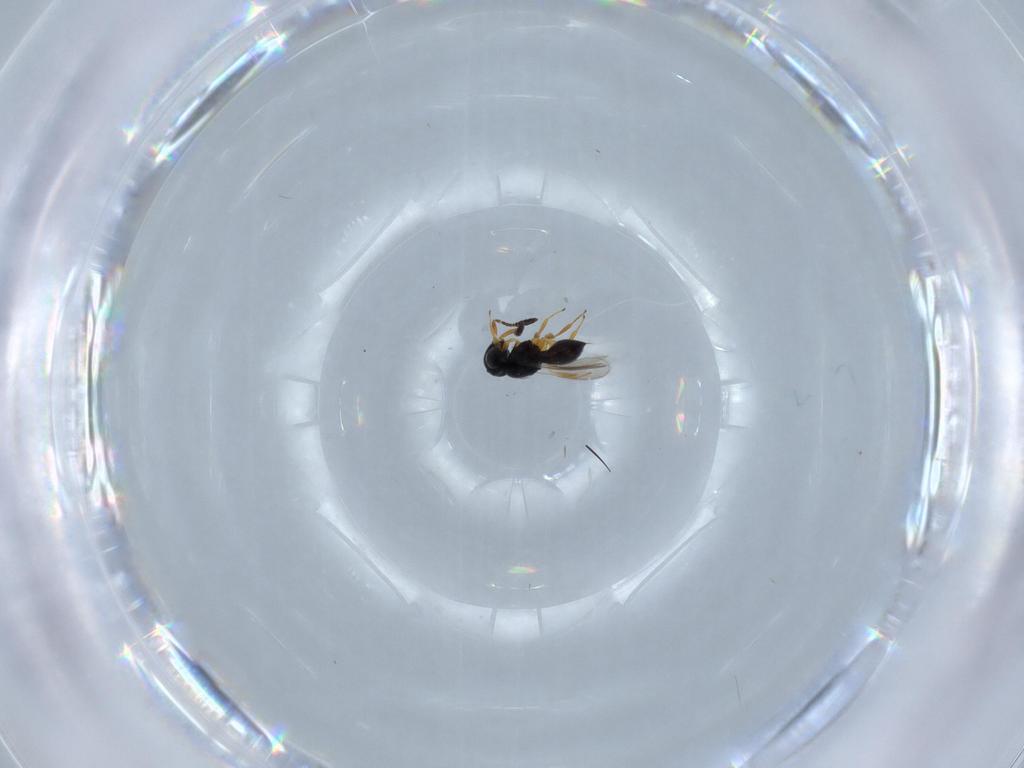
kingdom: Animalia
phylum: Arthropoda
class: Insecta
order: Hymenoptera
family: Scelionidae
